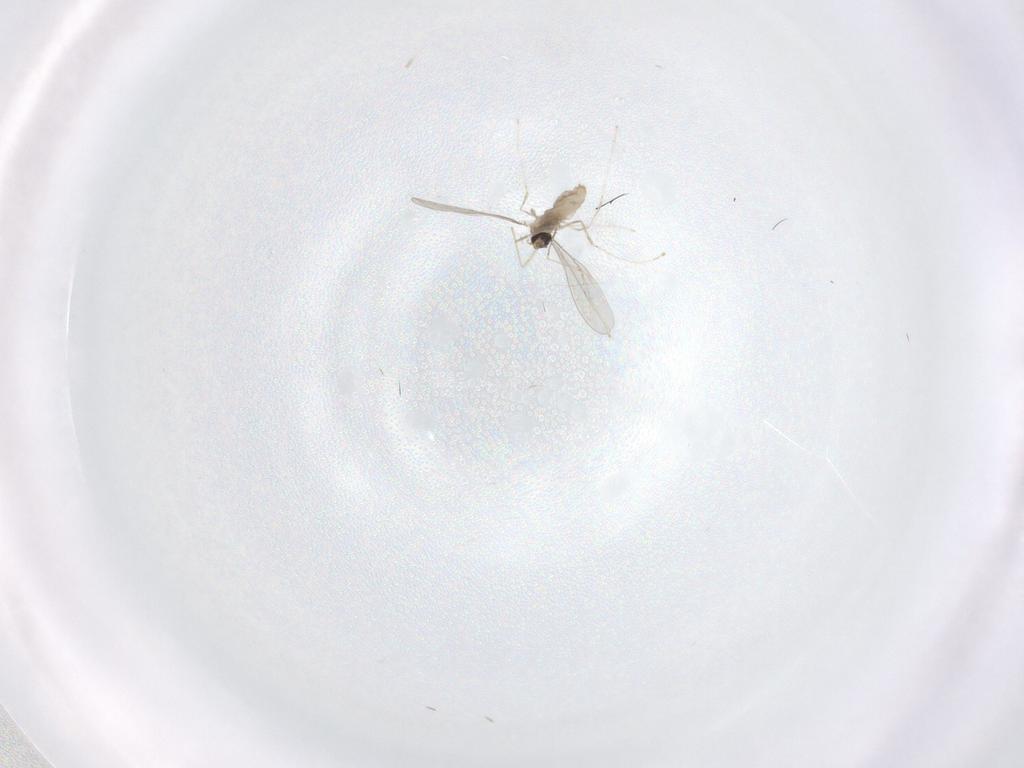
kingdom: Animalia
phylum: Arthropoda
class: Insecta
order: Diptera
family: Cecidomyiidae
